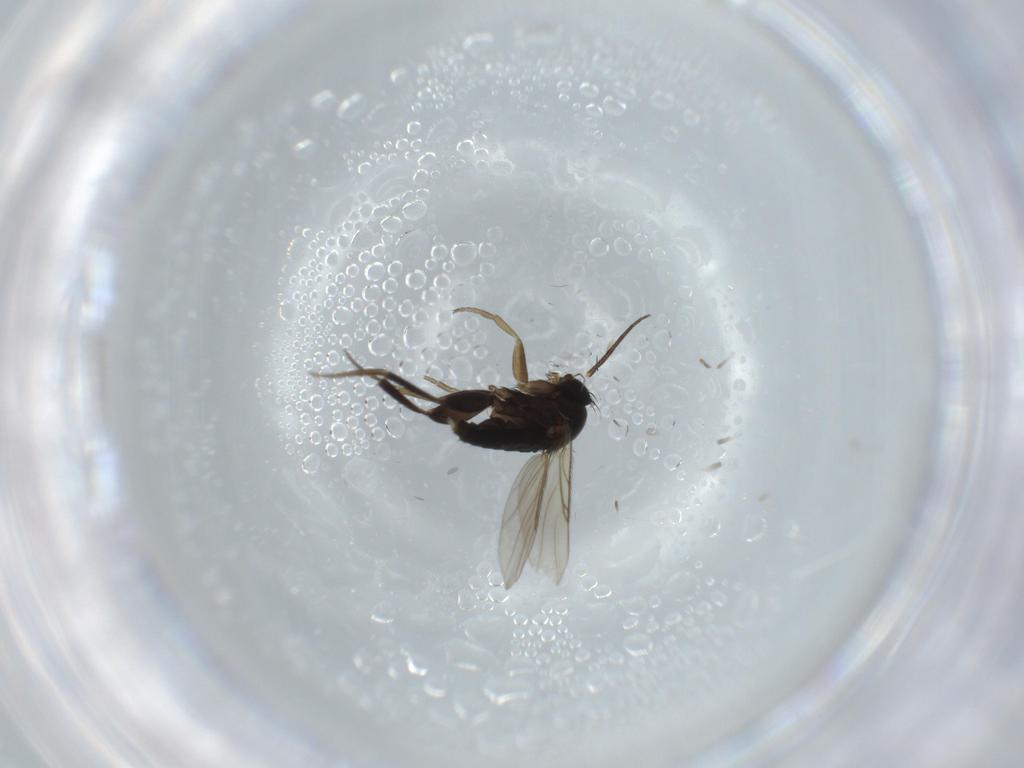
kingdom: Animalia
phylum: Arthropoda
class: Insecta
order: Diptera
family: Phoridae
